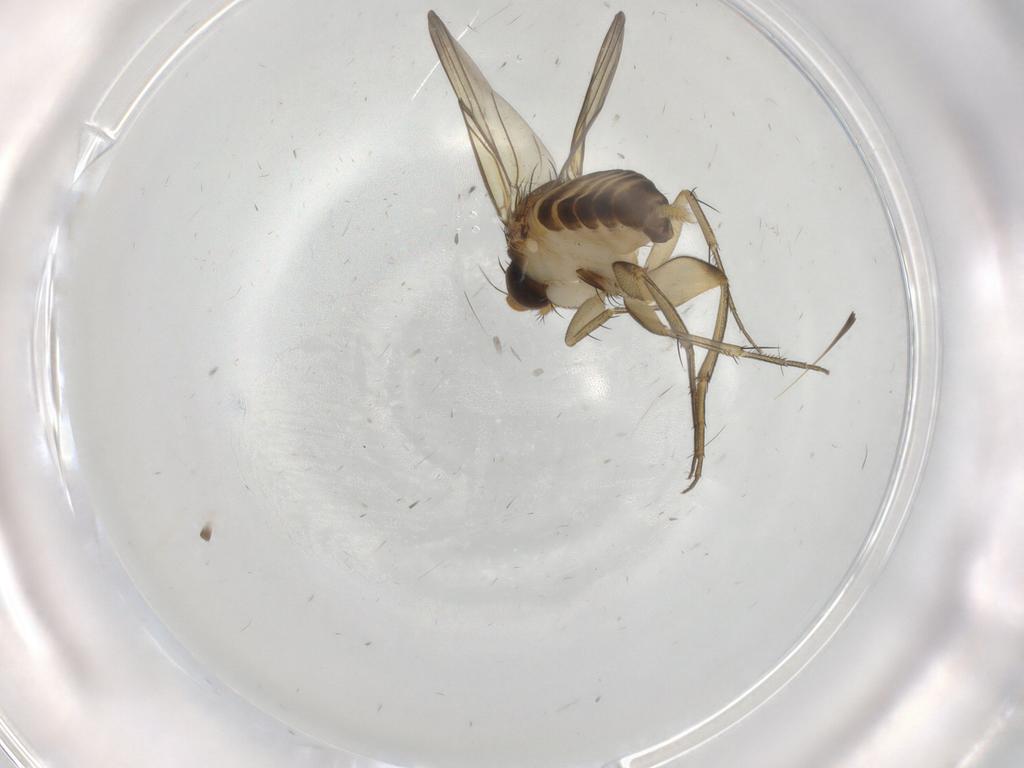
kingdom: Animalia
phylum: Arthropoda
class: Insecta
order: Diptera
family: Phoridae
